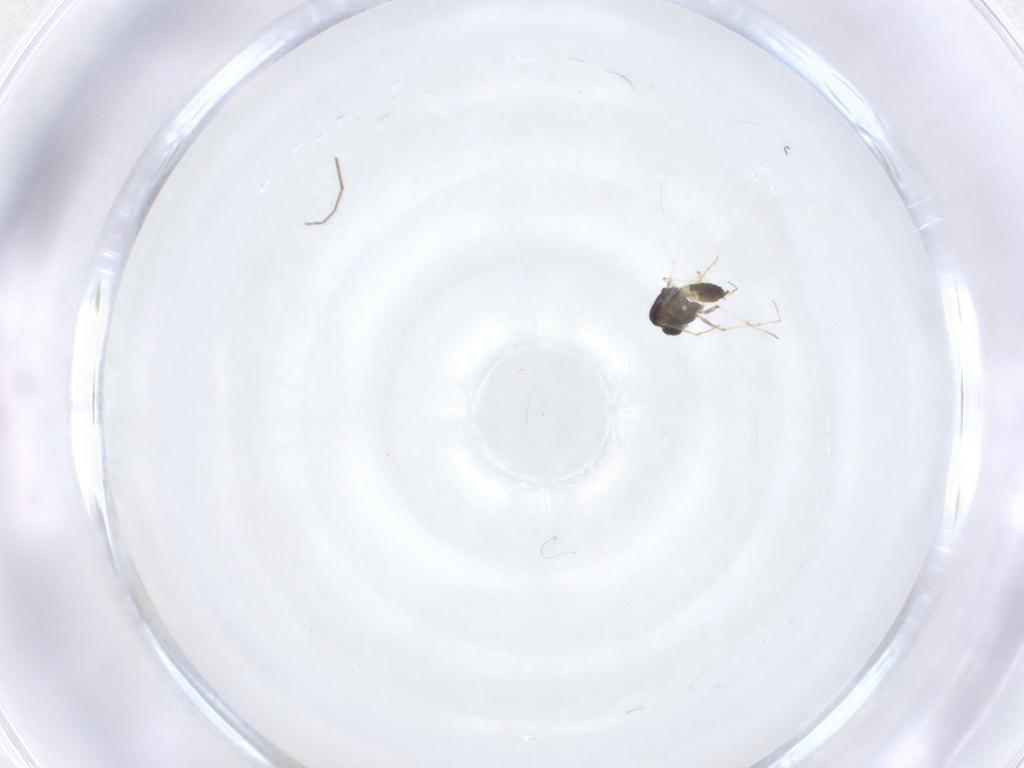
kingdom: Animalia
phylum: Arthropoda
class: Insecta
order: Diptera
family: Chironomidae
